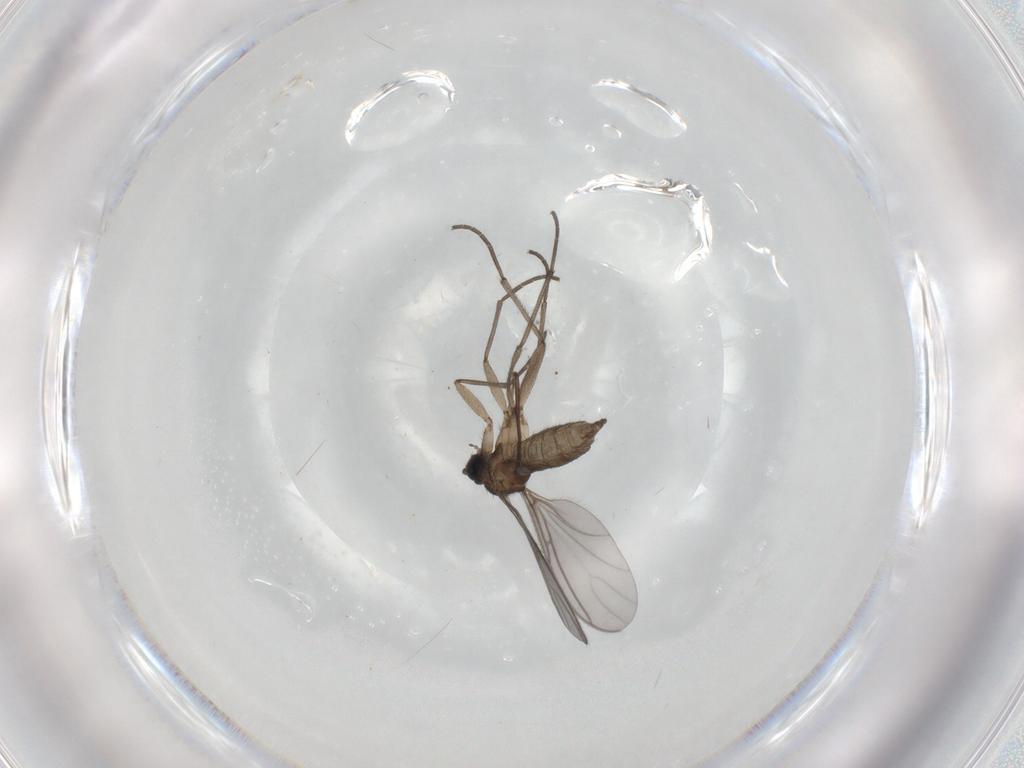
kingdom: Animalia
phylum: Arthropoda
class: Insecta
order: Diptera
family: Sciaridae
